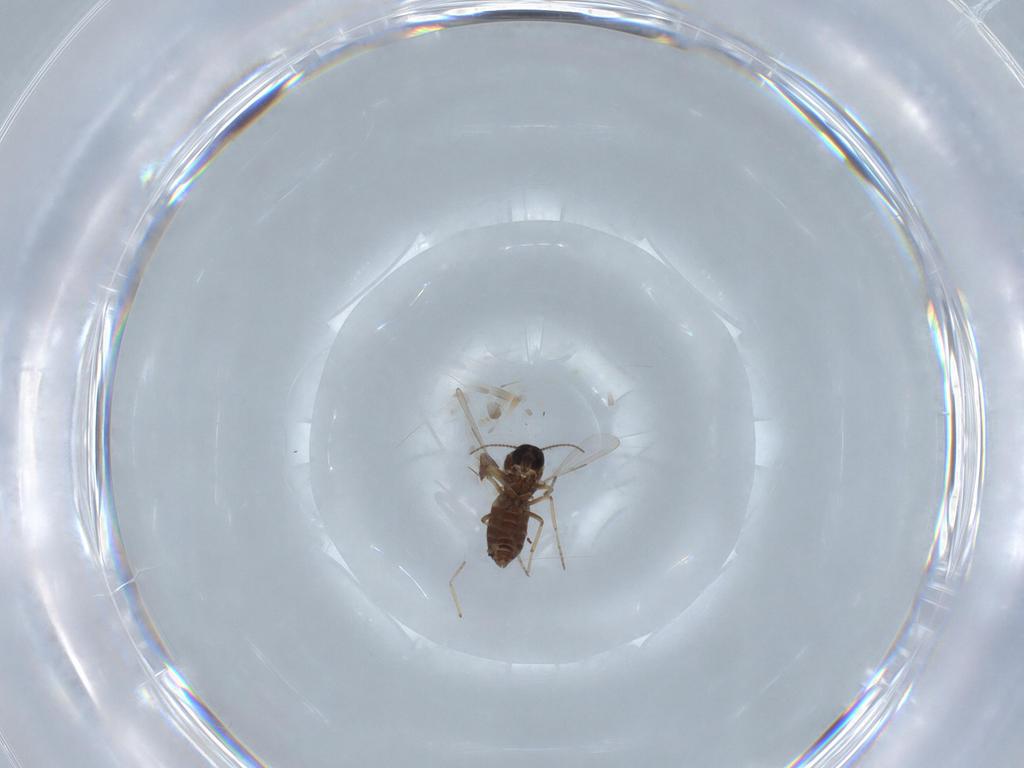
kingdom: Animalia
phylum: Arthropoda
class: Insecta
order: Diptera
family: Ceratopogonidae
